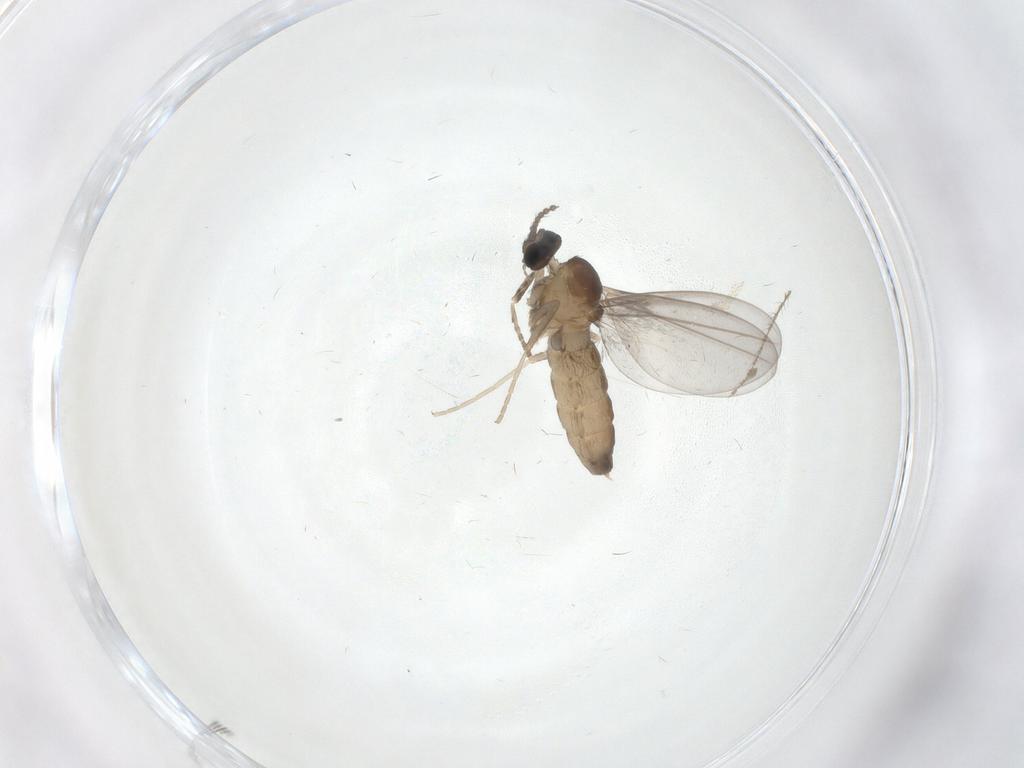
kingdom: Animalia
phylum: Arthropoda
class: Insecta
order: Diptera
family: Cecidomyiidae
